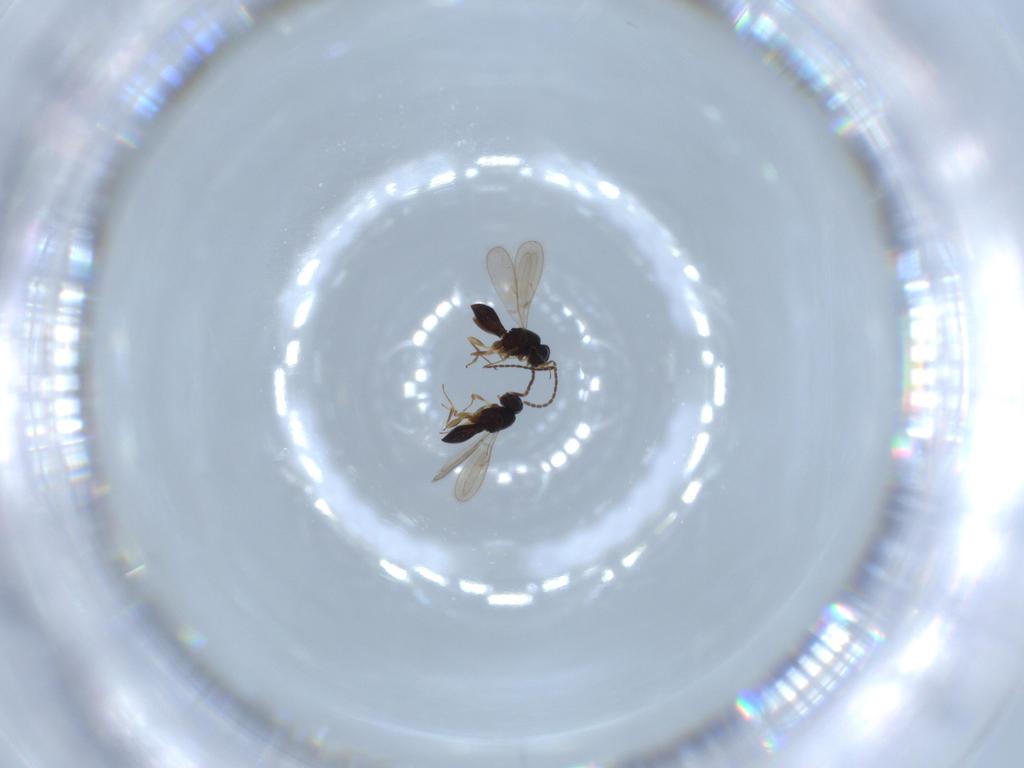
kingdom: Animalia
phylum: Arthropoda
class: Insecta
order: Hymenoptera
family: Scelionidae
